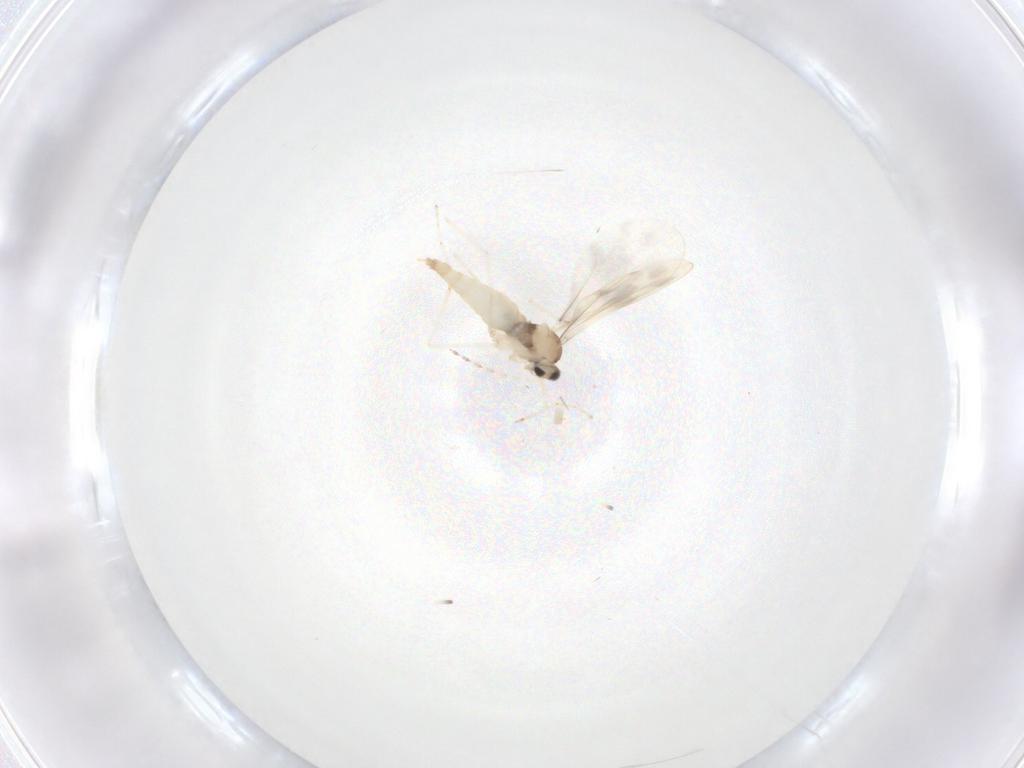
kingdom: Animalia
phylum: Arthropoda
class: Insecta
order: Diptera
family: Cecidomyiidae
